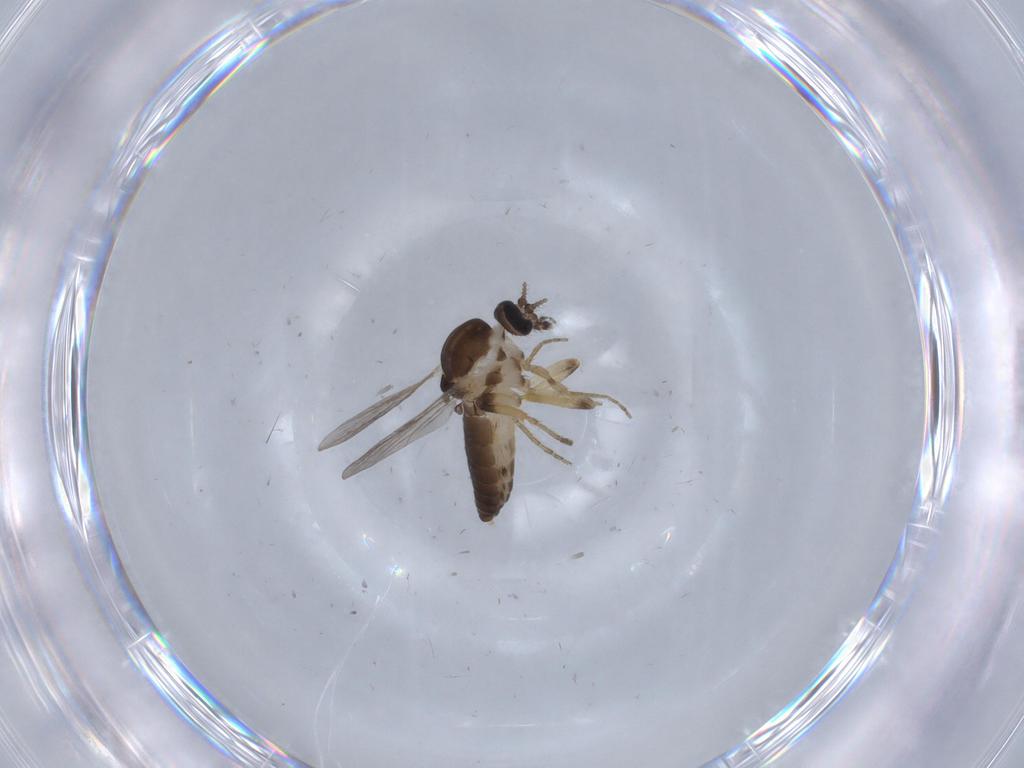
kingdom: Animalia
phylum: Arthropoda
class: Insecta
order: Diptera
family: Ceratopogonidae
